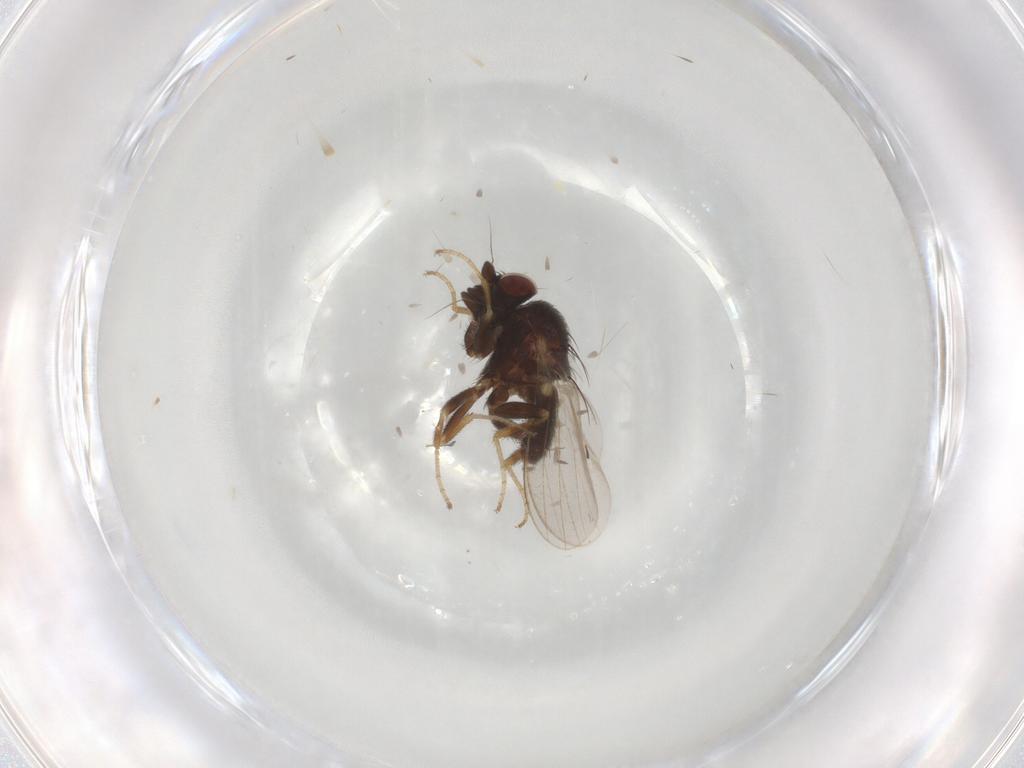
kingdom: Animalia
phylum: Arthropoda
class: Insecta
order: Diptera
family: Milichiidae
